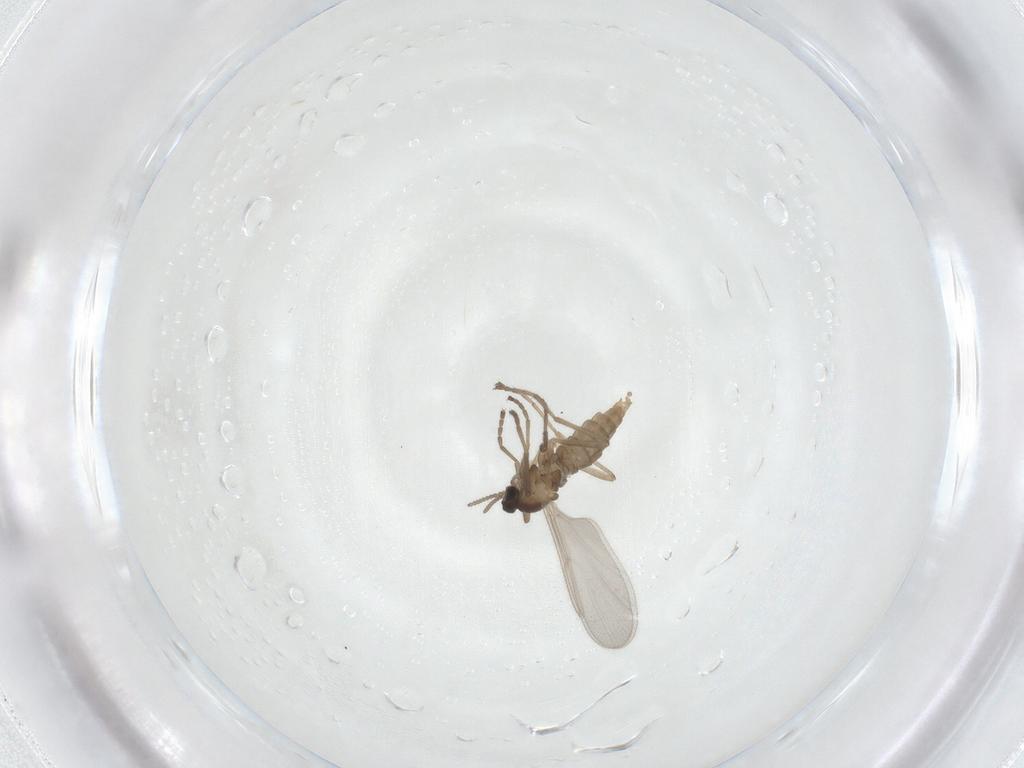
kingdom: Animalia
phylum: Arthropoda
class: Insecta
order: Diptera
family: Cecidomyiidae
